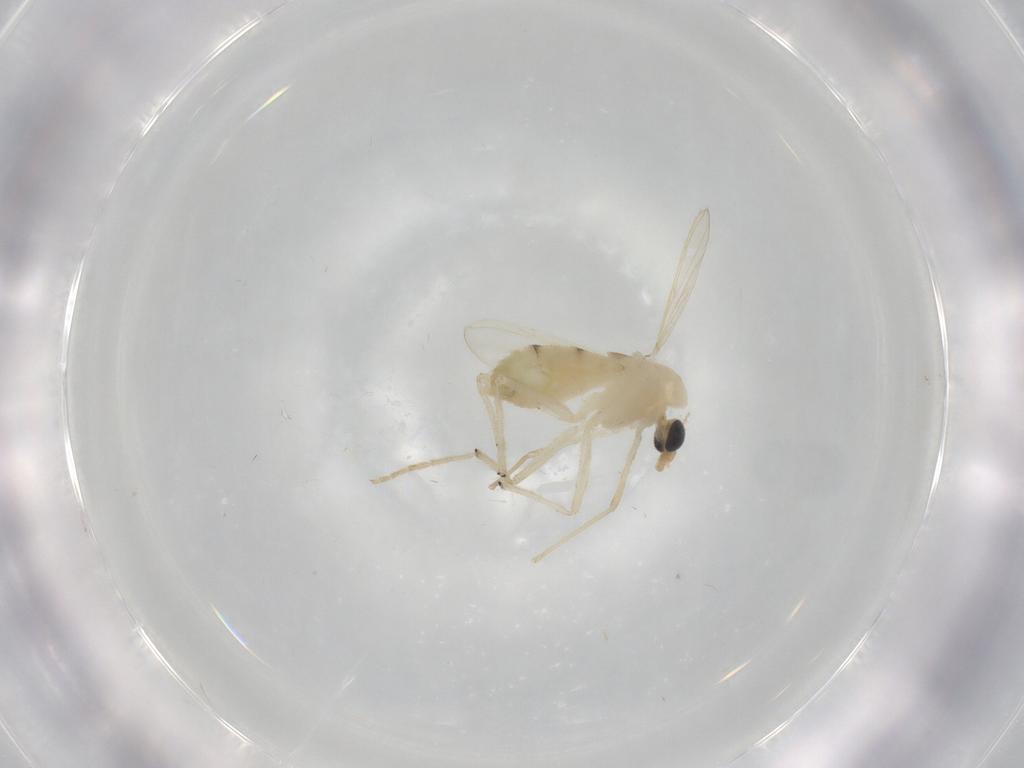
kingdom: Animalia
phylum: Arthropoda
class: Insecta
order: Diptera
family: Chironomidae
